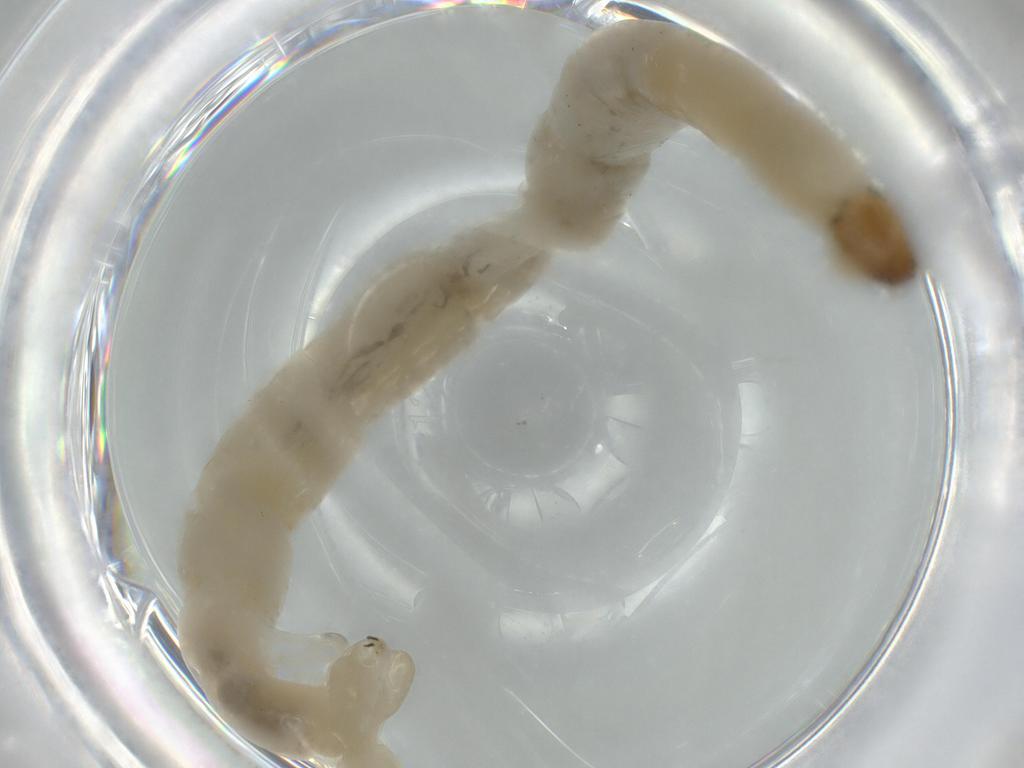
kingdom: Animalia
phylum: Arthropoda
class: Insecta
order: Diptera
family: Chironomidae
